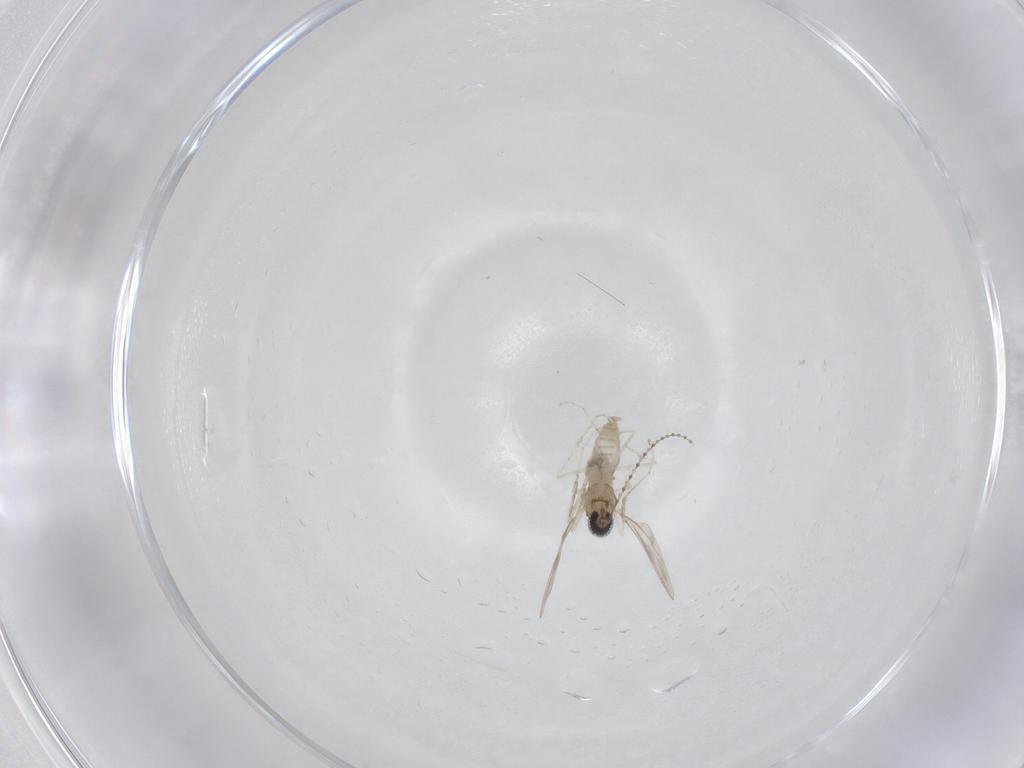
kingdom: Animalia
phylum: Arthropoda
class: Insecta
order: Diptera
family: Cecidomyiidae
